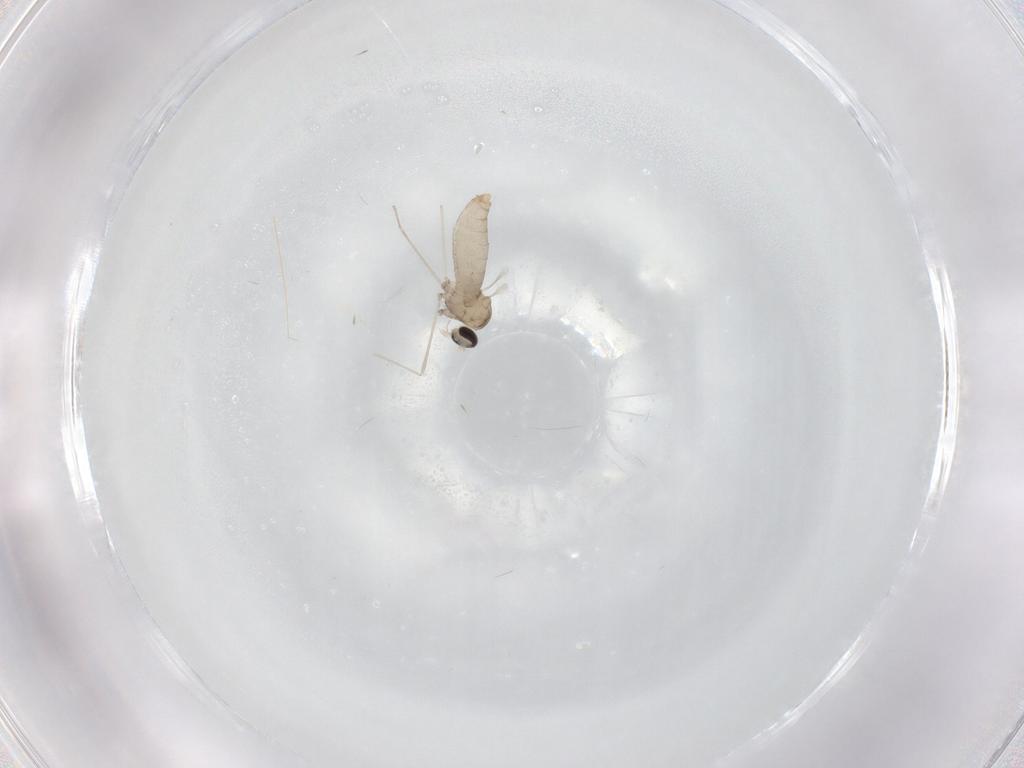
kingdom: Animalia
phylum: Arthropoda
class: Insecta
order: Diptera
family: Cecidomyiidae
